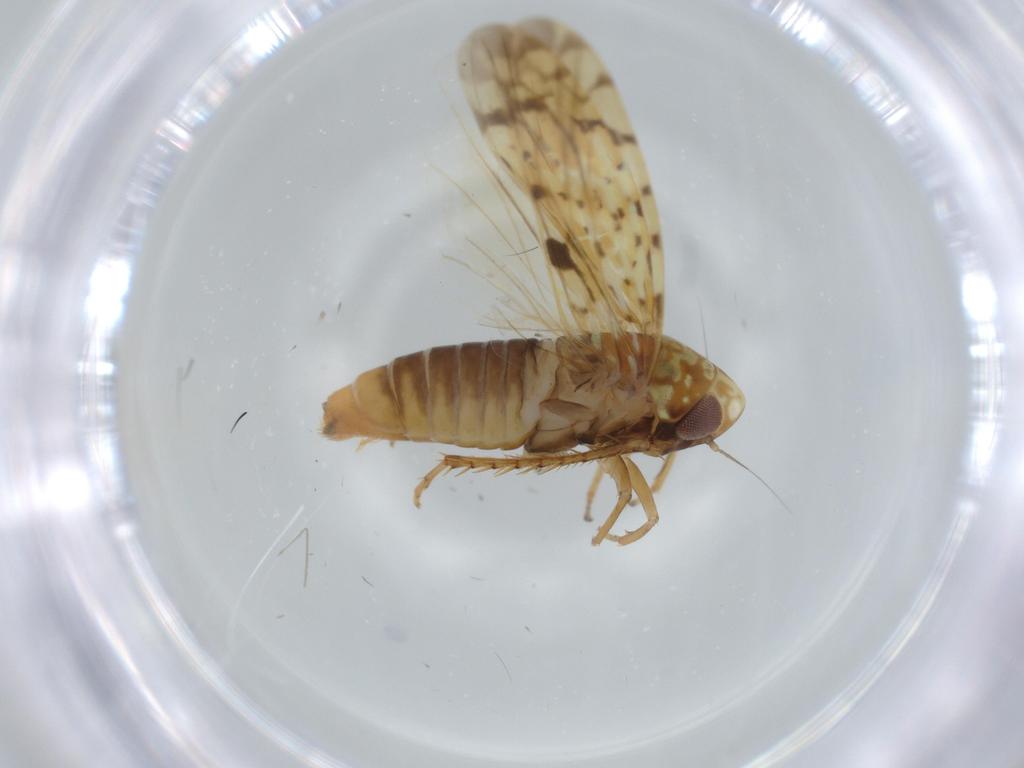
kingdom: Animalia
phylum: Arthropoda
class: Insecta
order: Hemiptera
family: Cicadellidae
